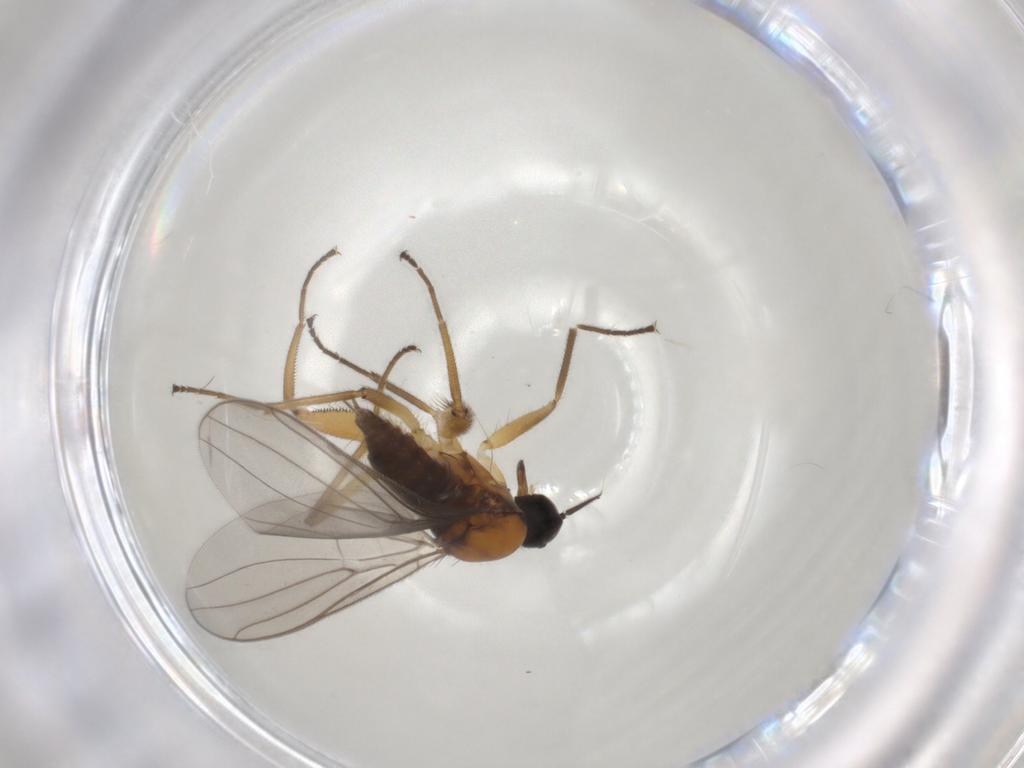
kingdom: Animalia
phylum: Arthropoda
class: Insecta
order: Diptera
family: Hybotidae
